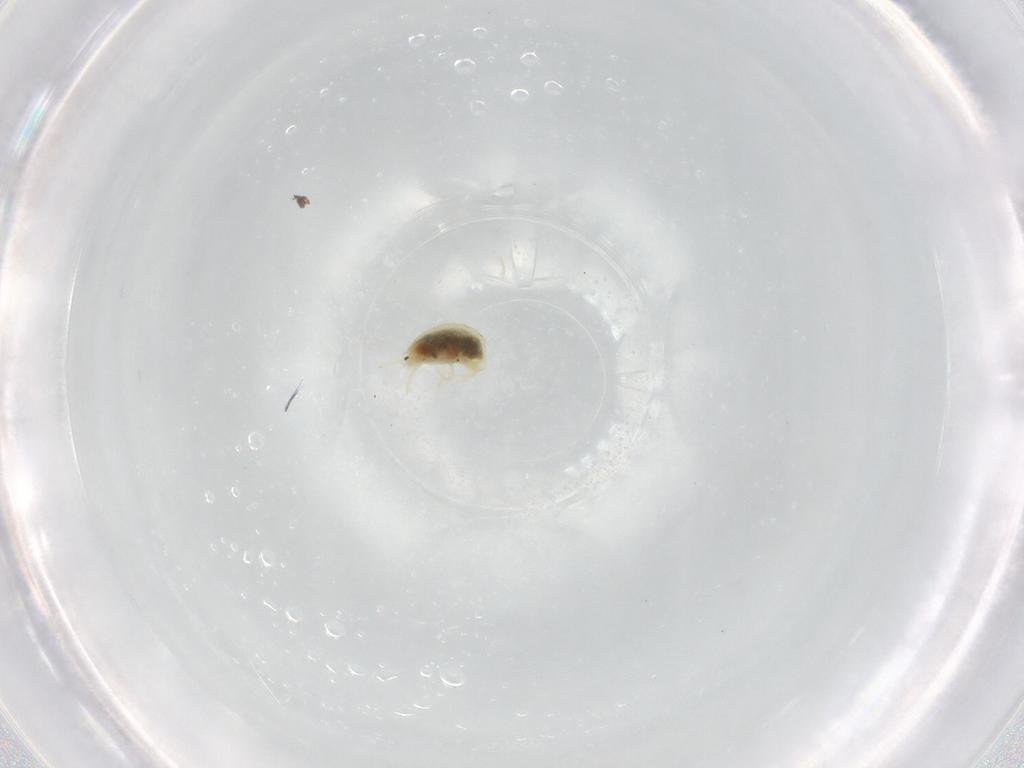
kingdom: Animalia
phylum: Arthropoda
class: Arachnida
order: Trombidiformes
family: Tetranychidae
